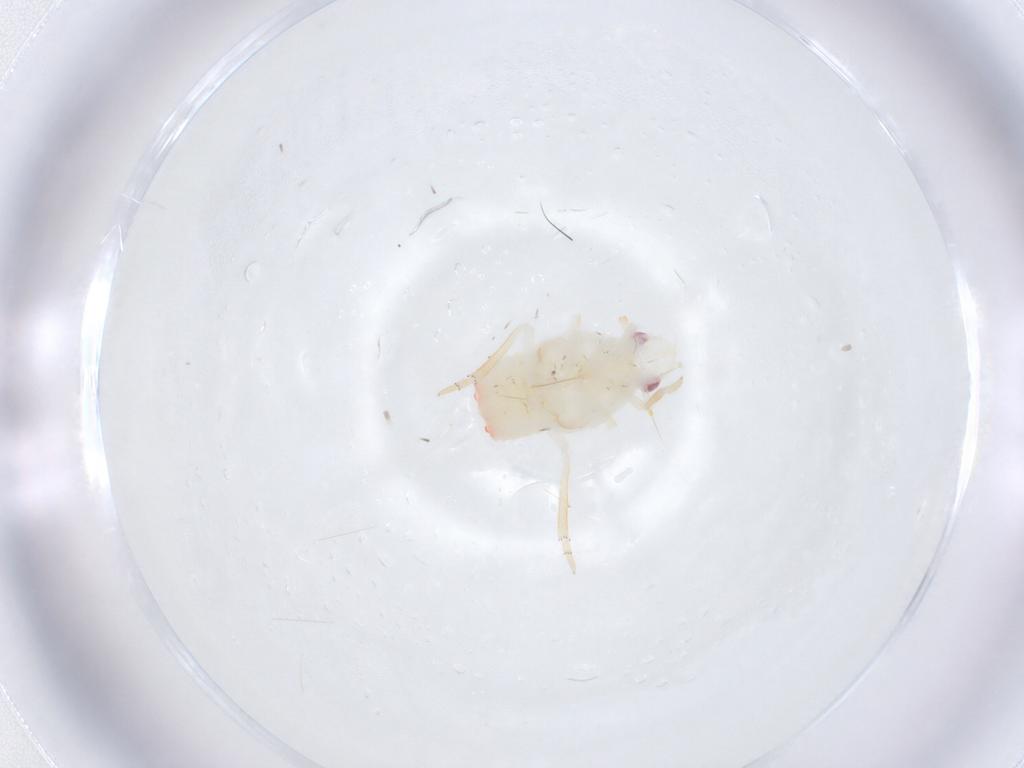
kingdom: Animalia
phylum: Arthropoda
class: Insecta
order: Hemiptera
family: Flatidae
